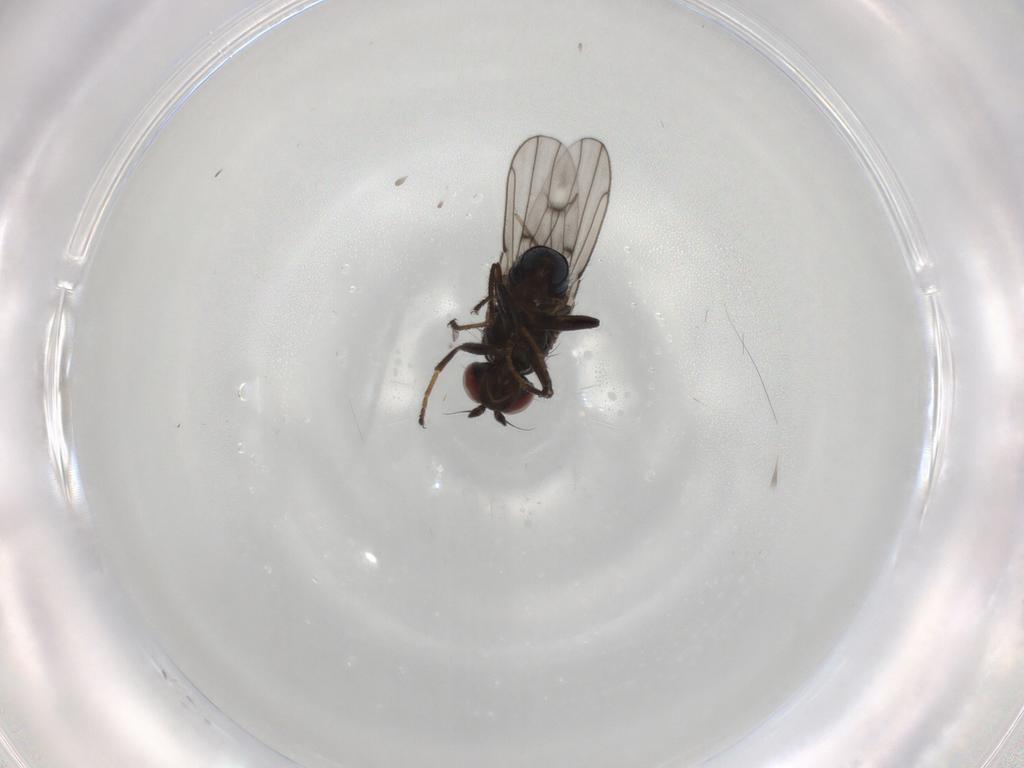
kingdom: Animalia
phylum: Arthropoda
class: Insecta
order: Diptera
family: Ephydridae
